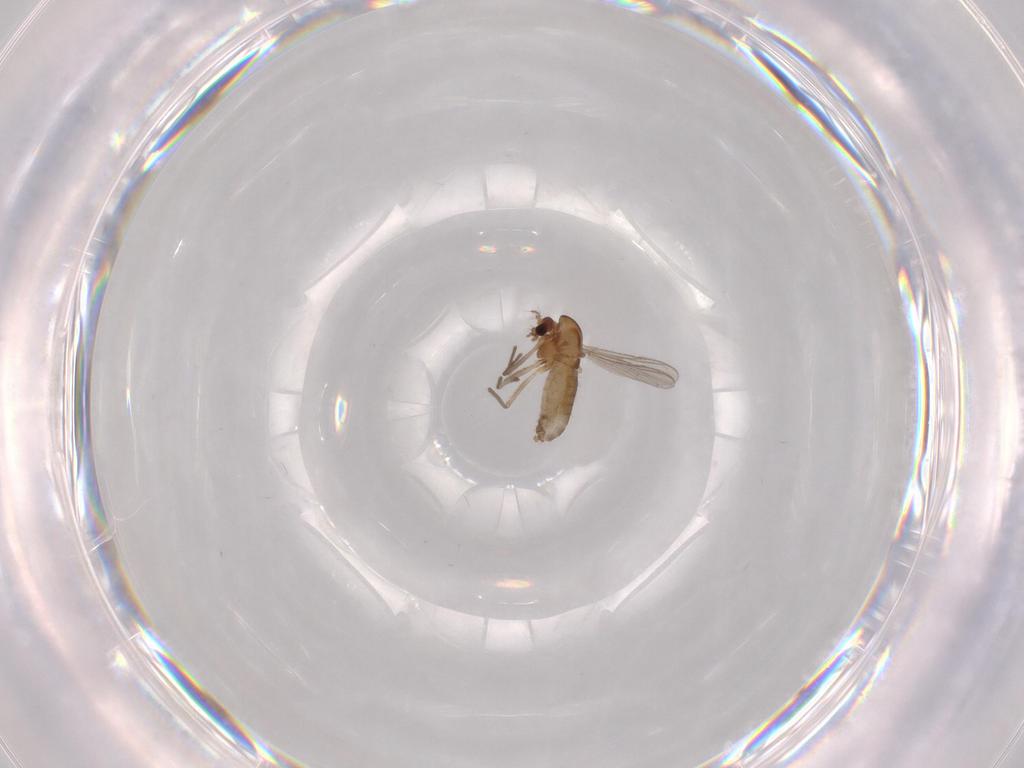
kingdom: Animalia
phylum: Arthropoda
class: Insecta
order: Diptera
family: Chironomidae
